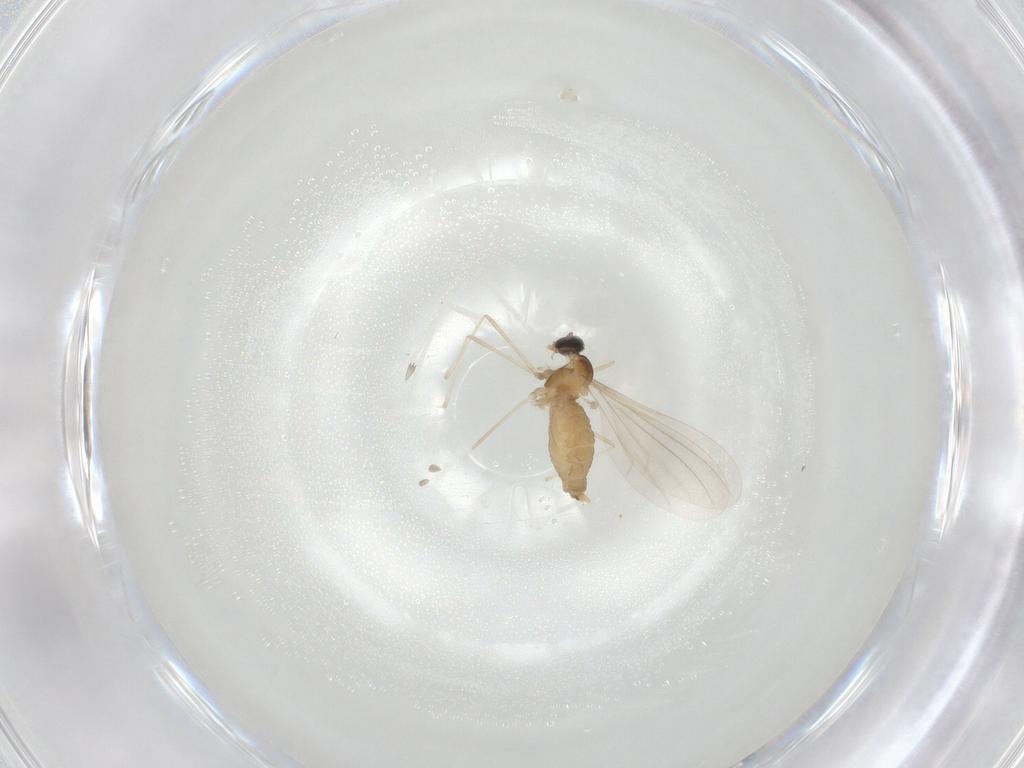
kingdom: Animalia
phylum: Arthropoda
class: Insecta
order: Diptera
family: Cecidomyiidae
